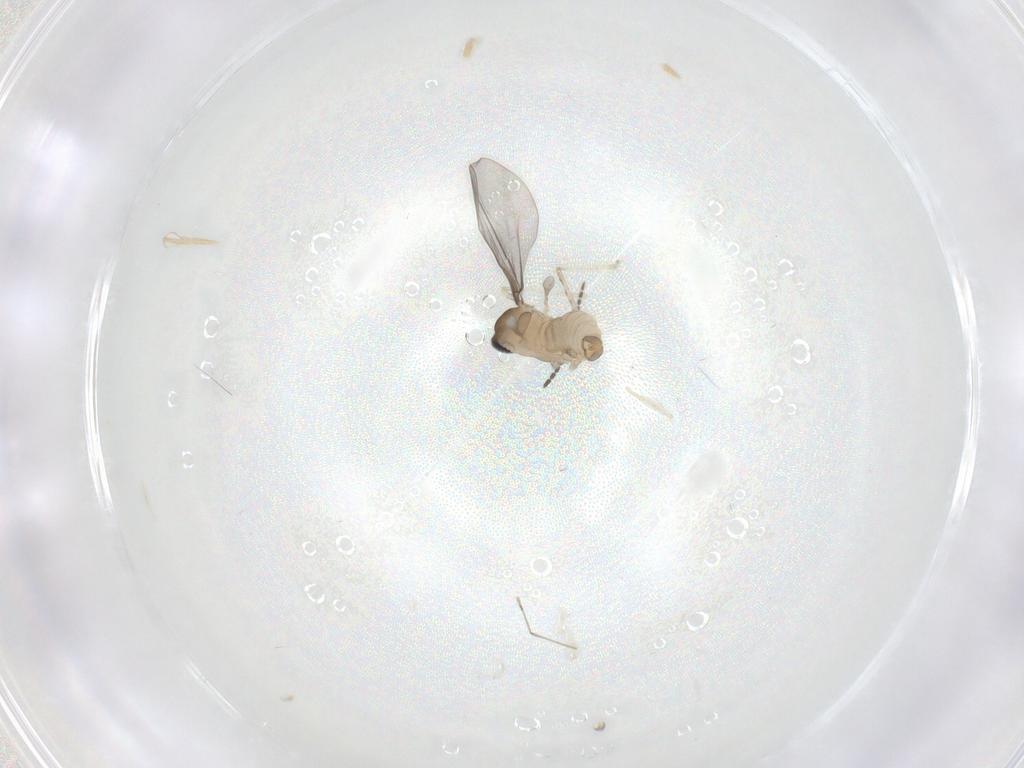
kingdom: Animalia
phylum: Arthropoda
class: Insecta
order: Diptera
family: Cecidomyiidae
